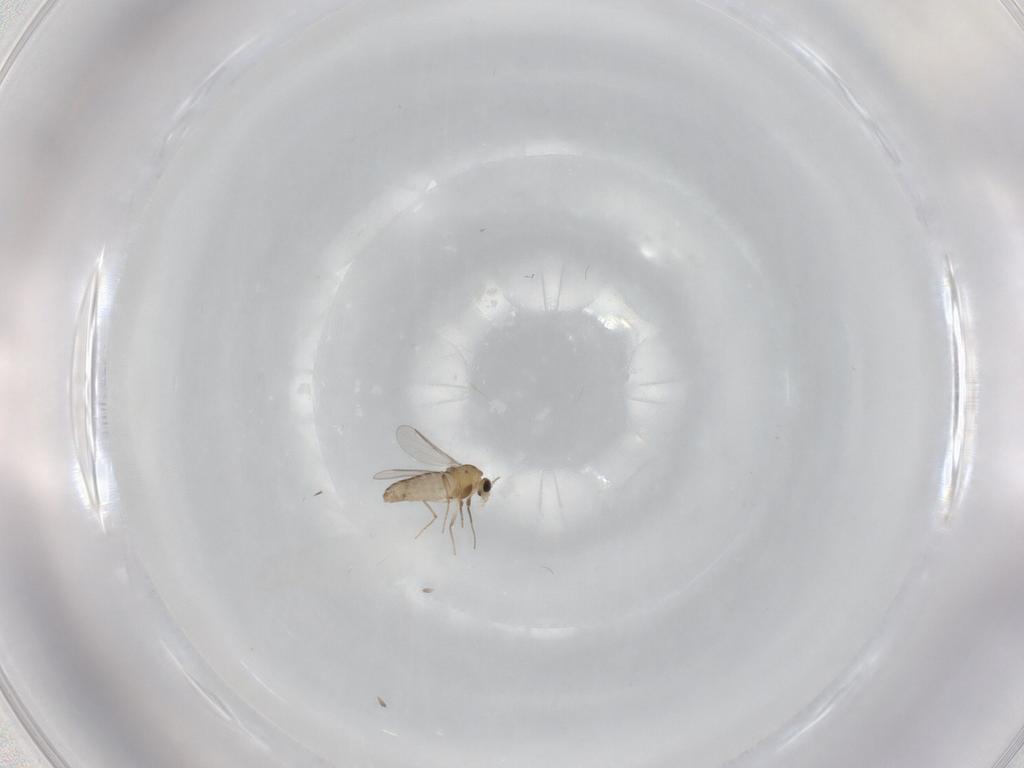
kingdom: Animalia
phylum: Arthropoda
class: Insecta
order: Diptera
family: Chironomidae
